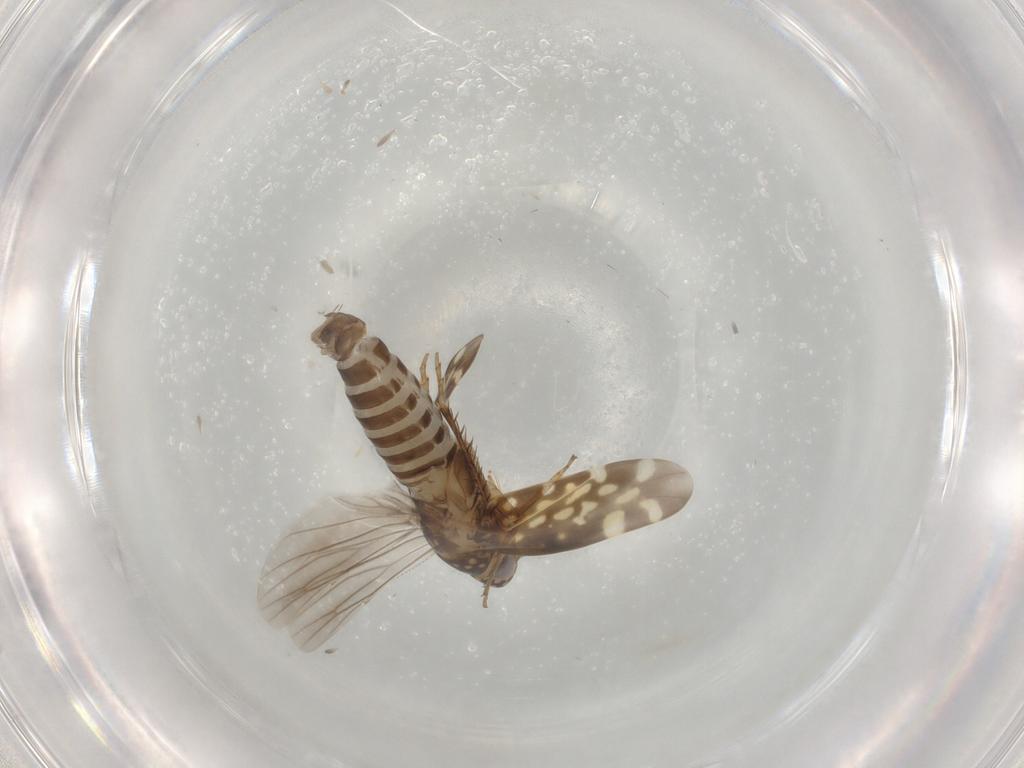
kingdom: Animalia
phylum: Arthropoda
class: Insecta
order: Hemiptera
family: Cicadellidae
